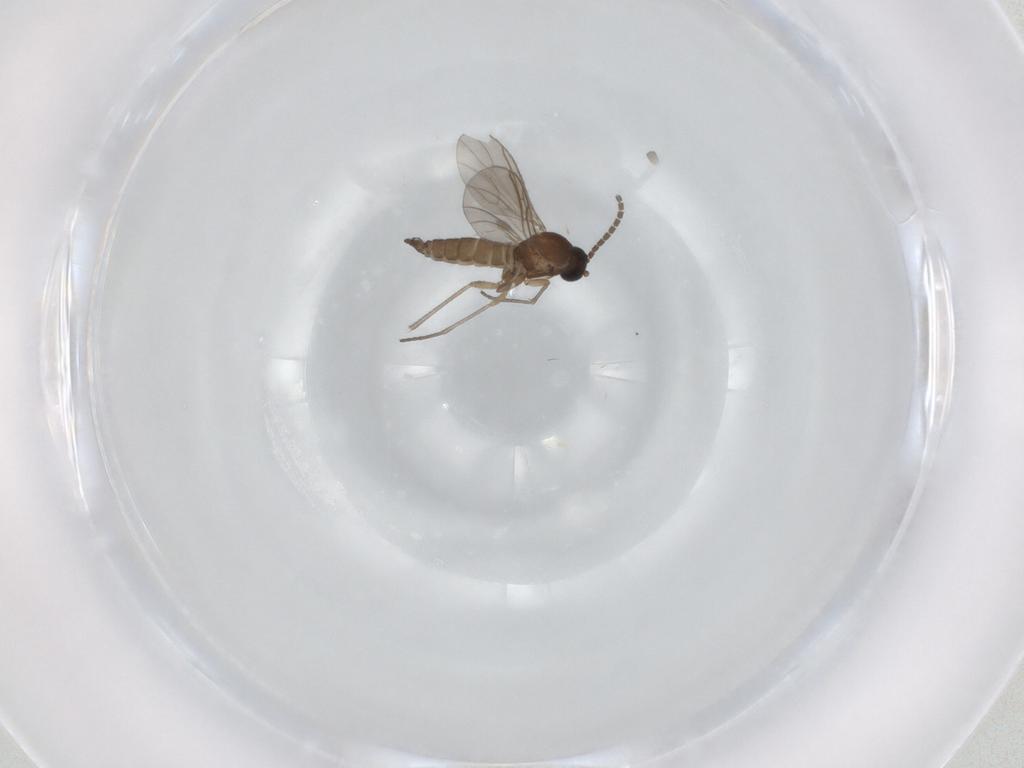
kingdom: Animalia
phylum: Arthropoda
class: Insecta
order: Diptera
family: Sciaridae
